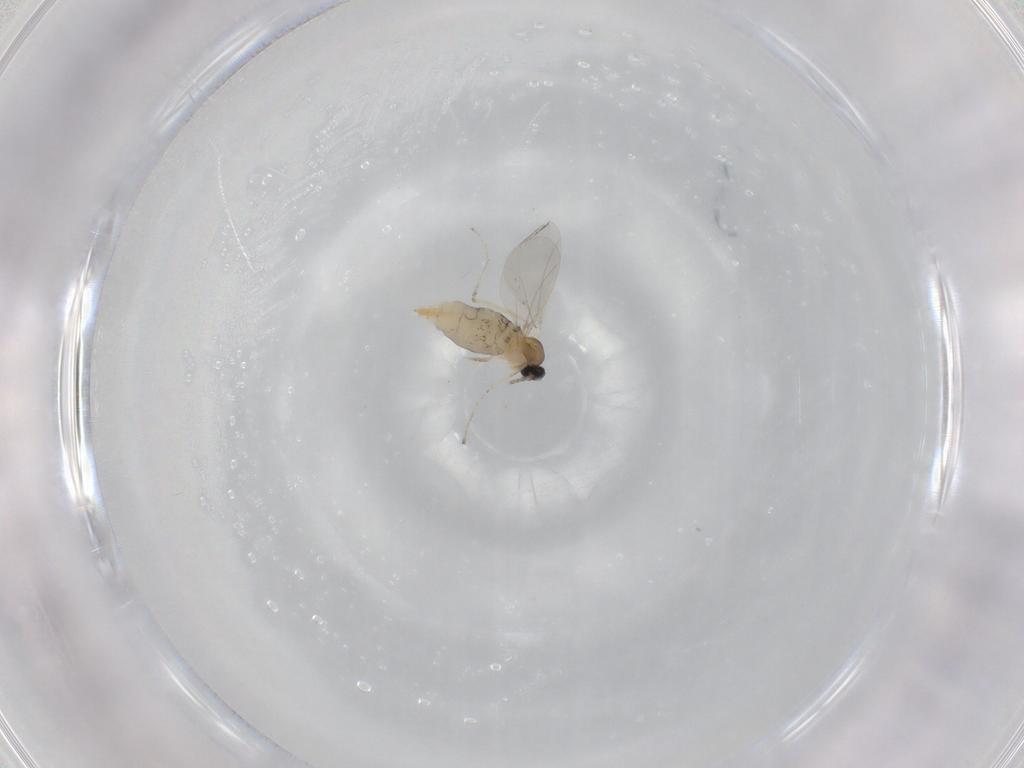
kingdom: Animalia
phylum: Arthropoda
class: Insecta
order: Diptera
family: Cecidomyiidae
